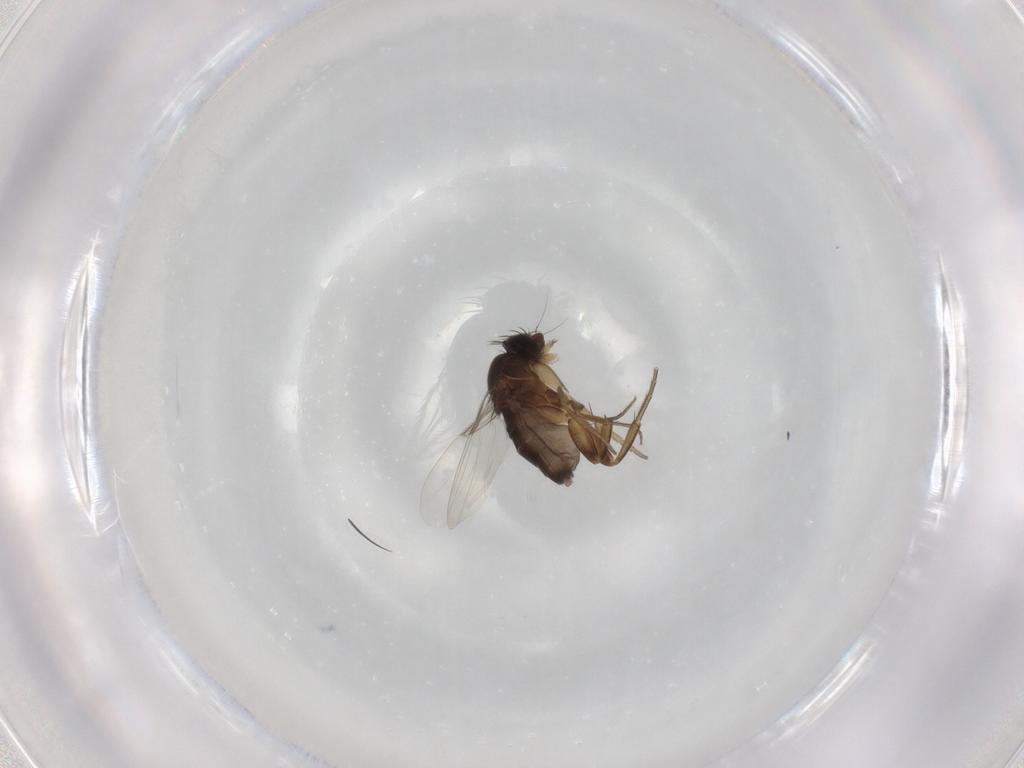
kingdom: Animalia
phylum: Arthropoda
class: Insecta
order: Diptera
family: Phoridae
